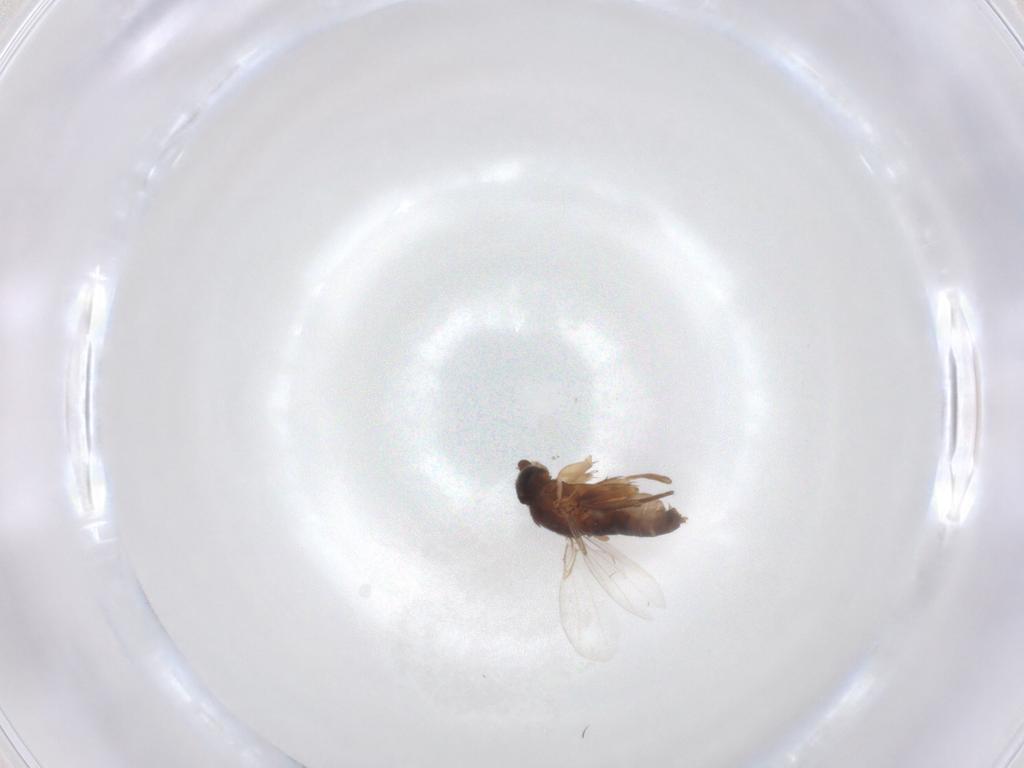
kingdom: Animalia
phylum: Arthropoda
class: Insecta
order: Diptera
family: Phoridae
